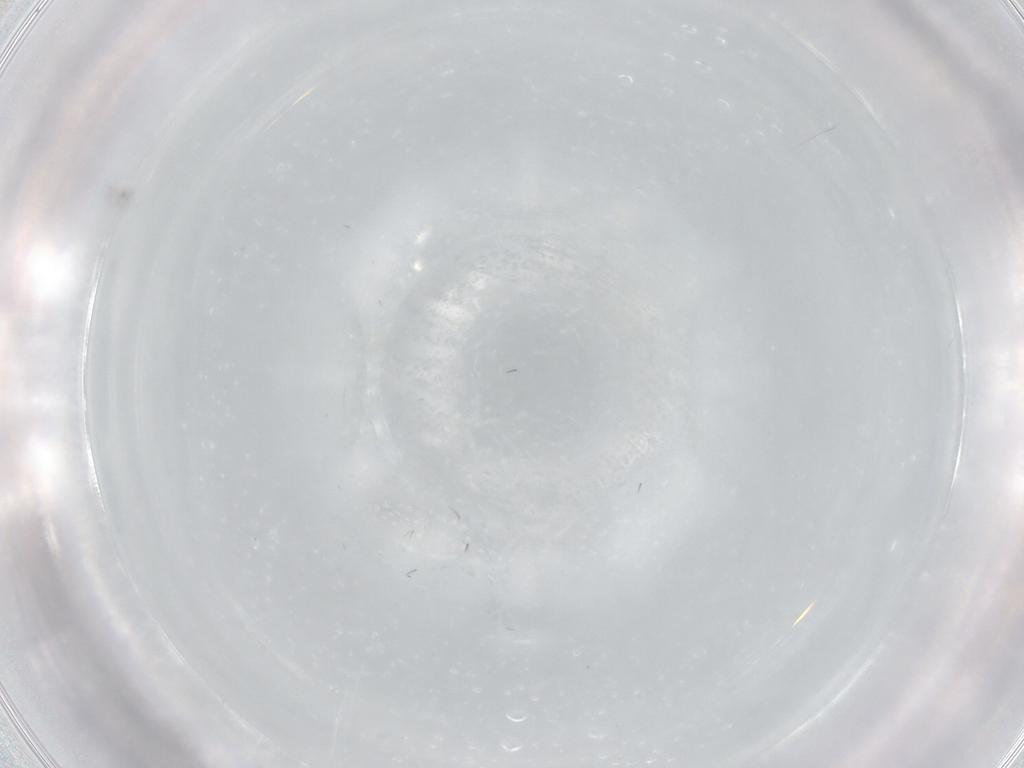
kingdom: Animalia
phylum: Arthropoda
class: Insecta
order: Diptera
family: Sciaridae
